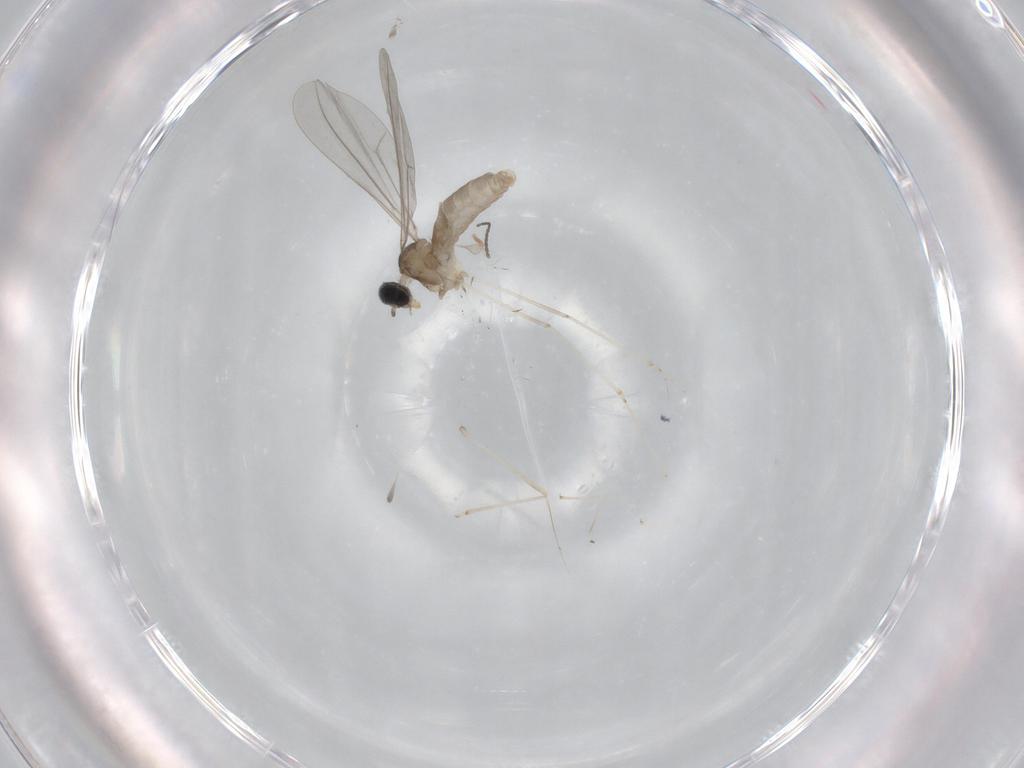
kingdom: Animalia
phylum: Arthropoda
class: Insecta
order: Diptera
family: Cecidomyiidae
